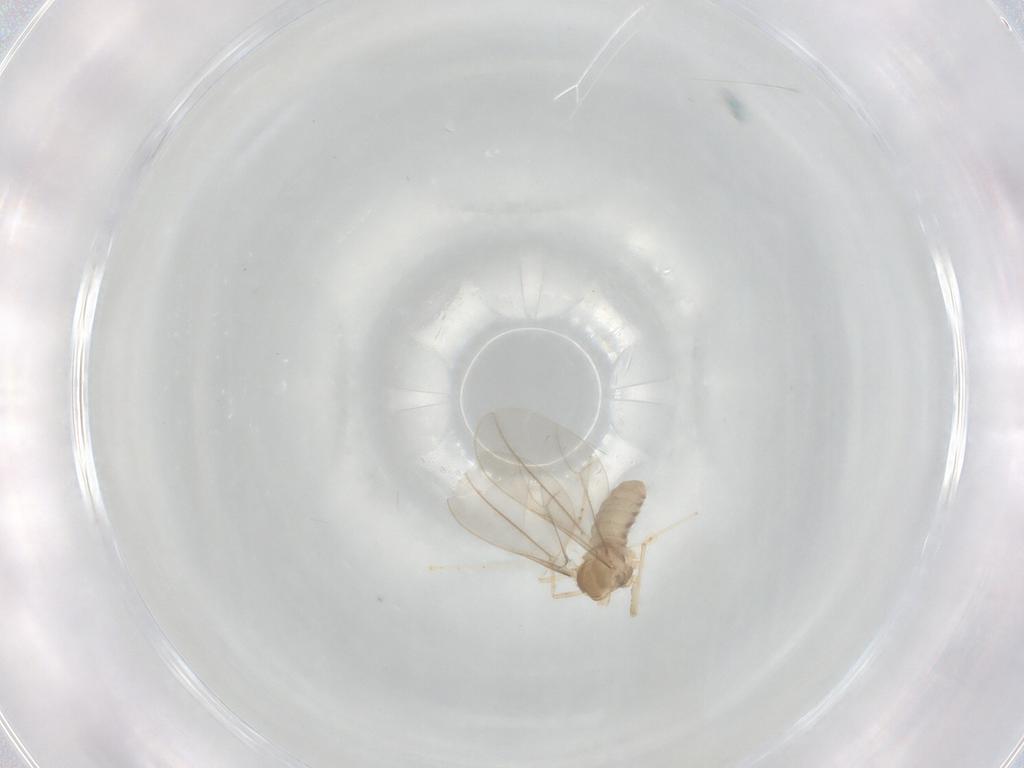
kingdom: Animalia
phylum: Arthropoda
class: Insecta
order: Diptera
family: Cecidomyiidae
